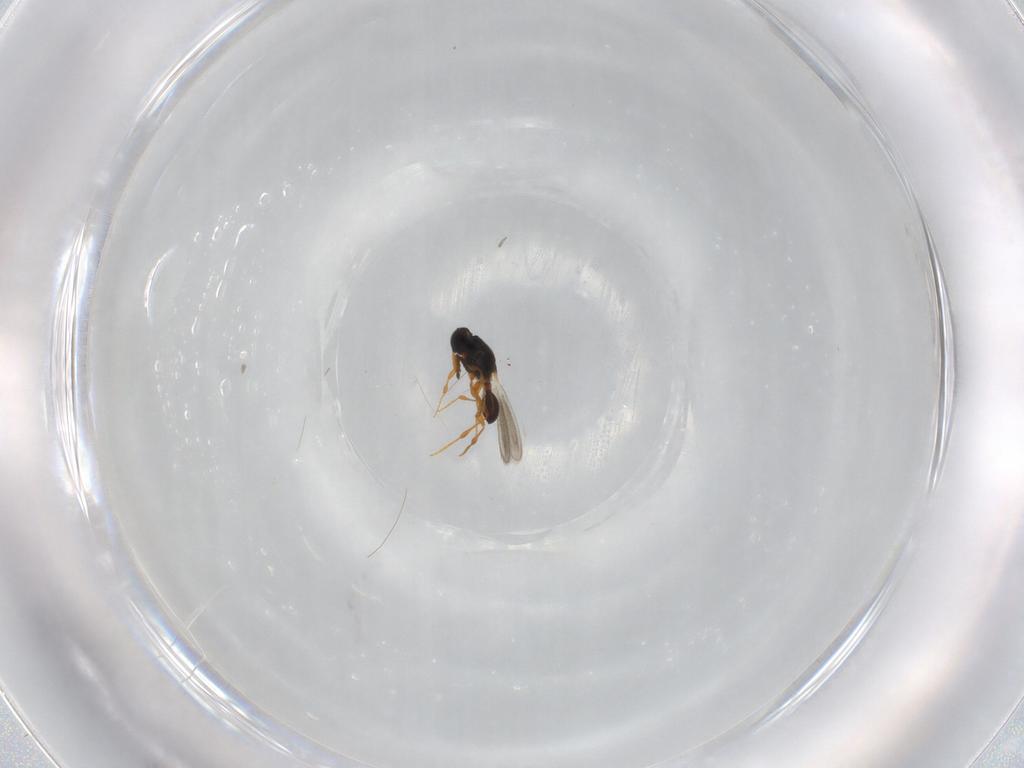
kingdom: Animalia
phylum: Arthropoda
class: Insecta
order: Hymenoptera
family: Platygastridae
